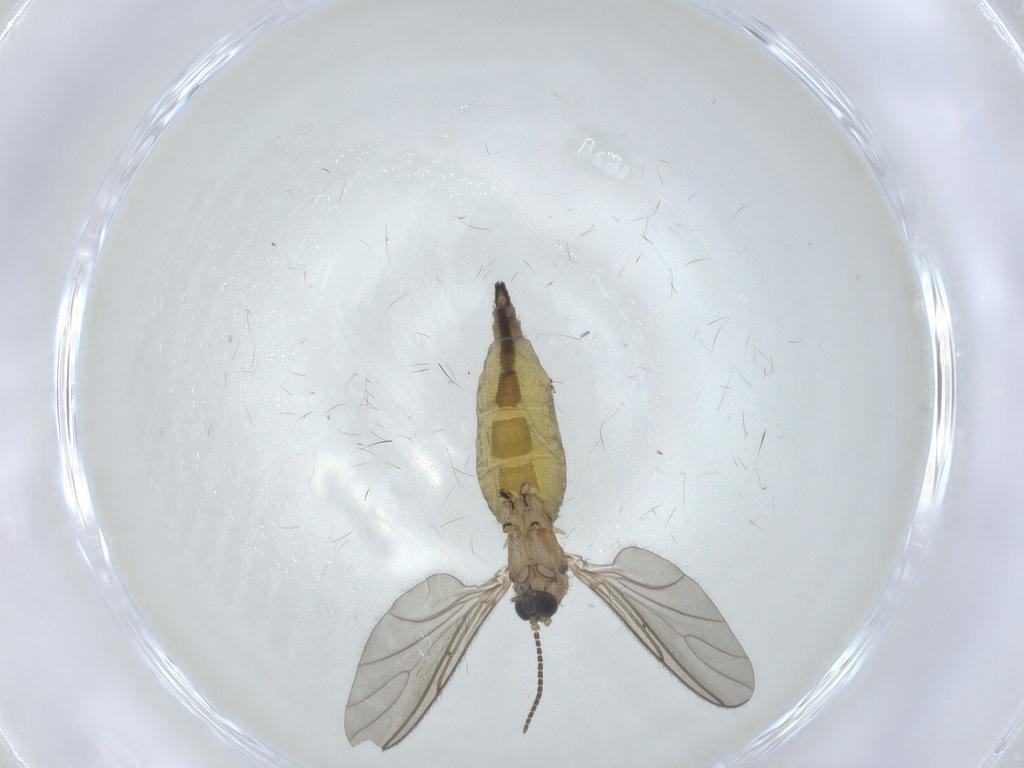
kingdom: Animalia
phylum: Arthropoda
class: Insecta
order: Diptera
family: Sciaridae
